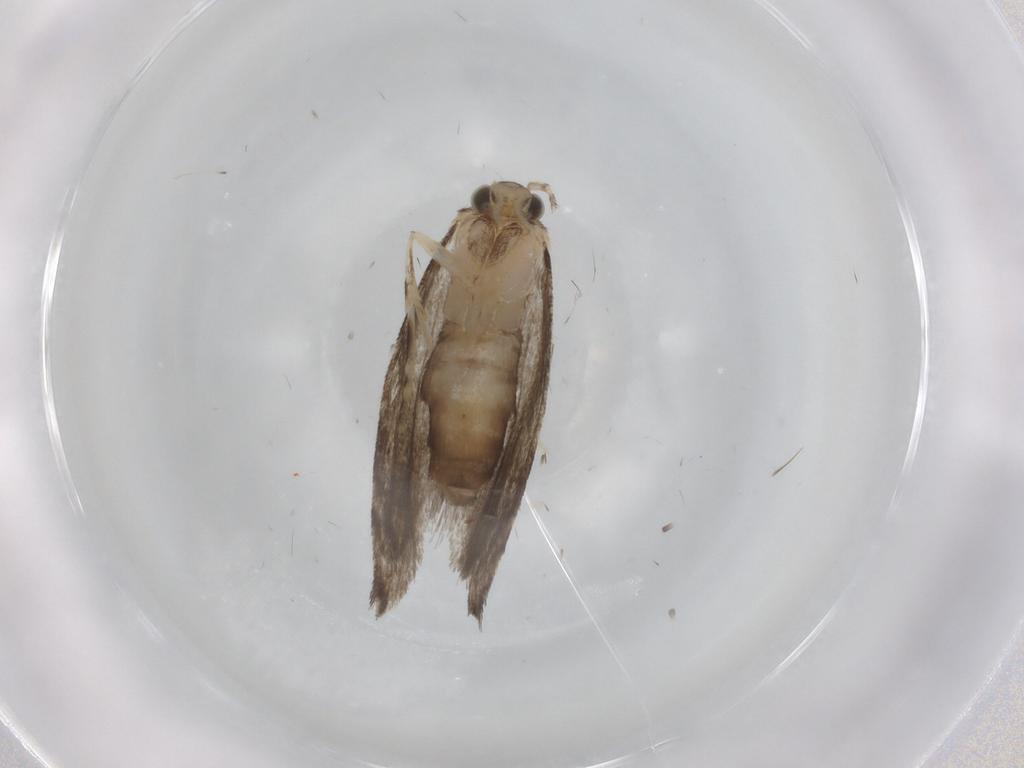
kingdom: Animalia
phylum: Arthropoda
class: Insecta
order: Lepidoptera
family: Tineidae
